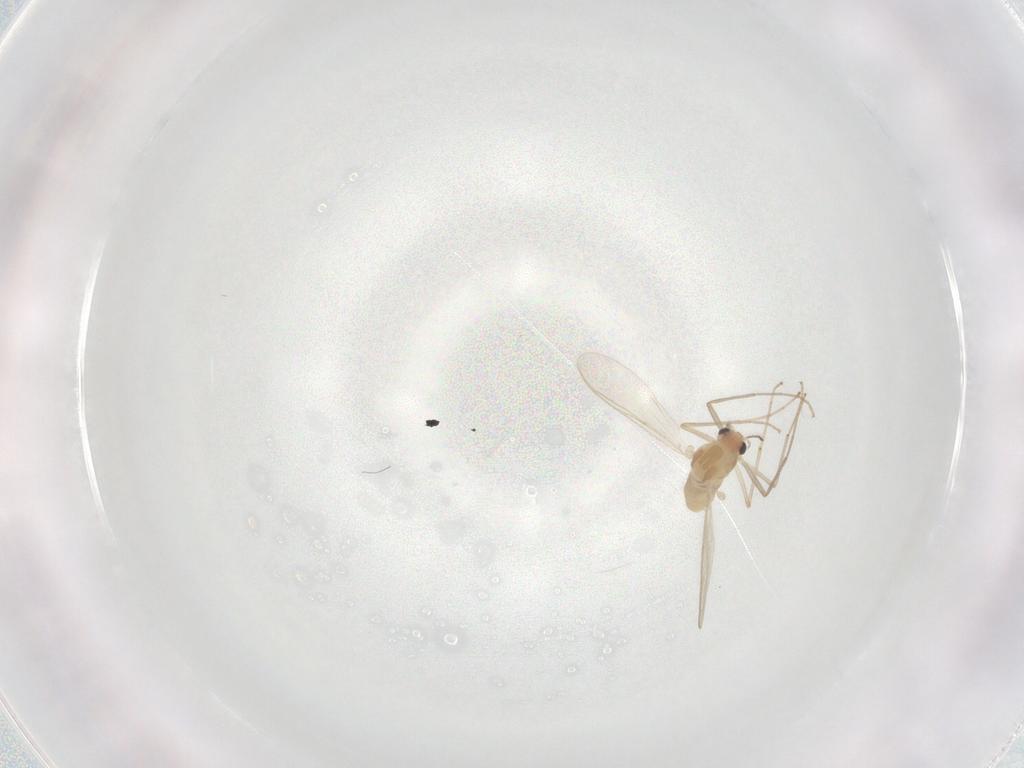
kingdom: Animalia
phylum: Arthropoda
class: Insecta
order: Diptera
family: Chironomidae
